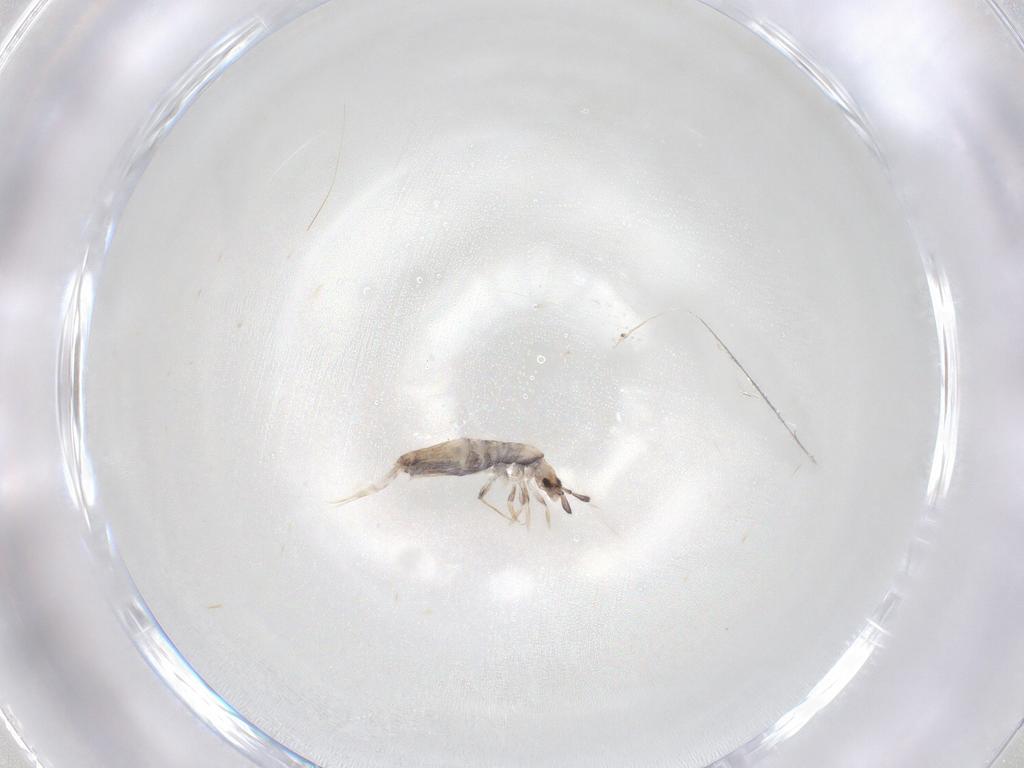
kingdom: Animalia
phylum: Arthropoda
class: Collembola
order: Poduromorpha
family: Hypogastruridae
